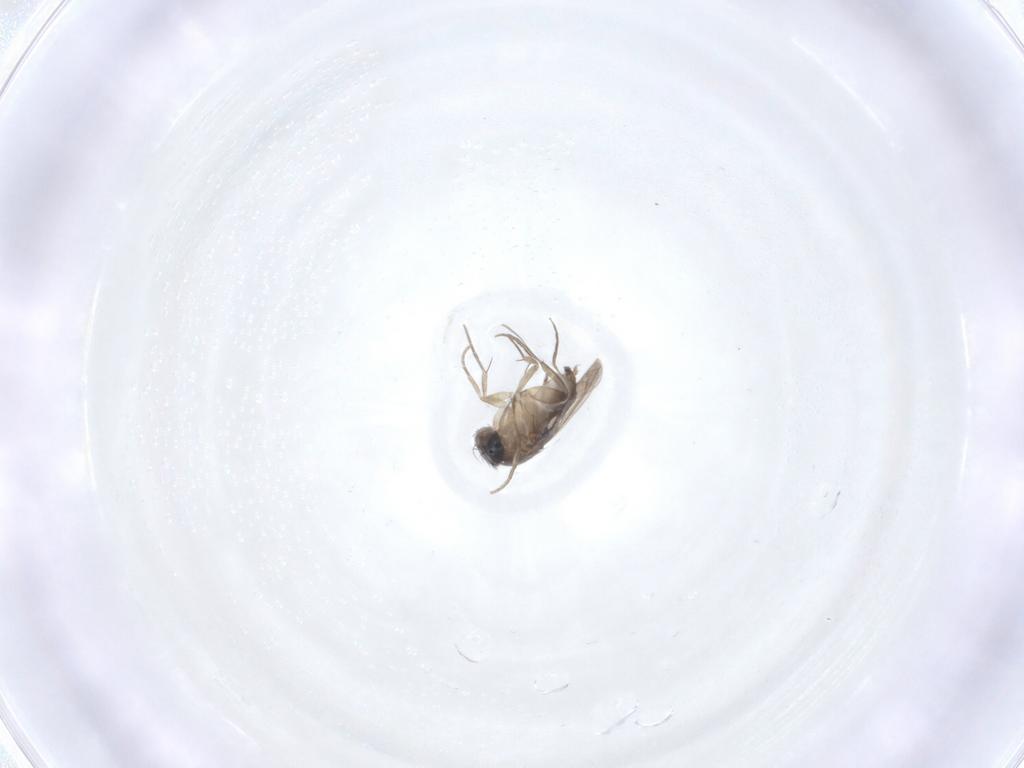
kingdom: Animalia
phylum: Arthropoda
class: Insecta
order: Diptera
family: Phoridae
